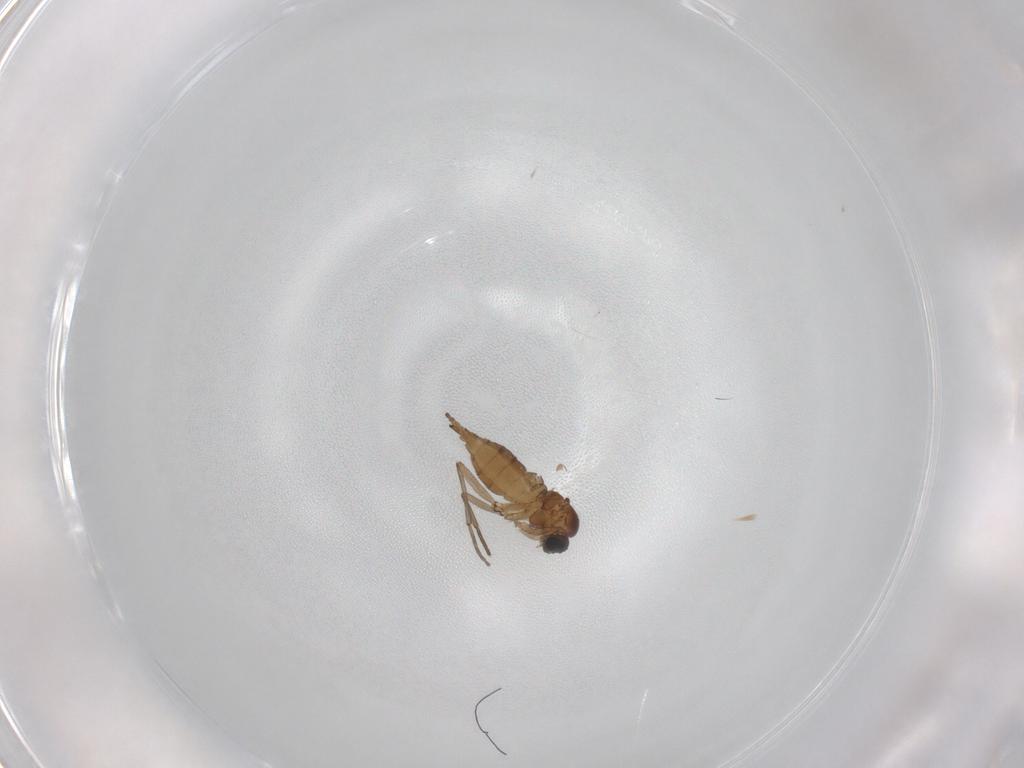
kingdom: Animalia
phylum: Arthropoda
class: Insecta
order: Diptera
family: Sciaridae
